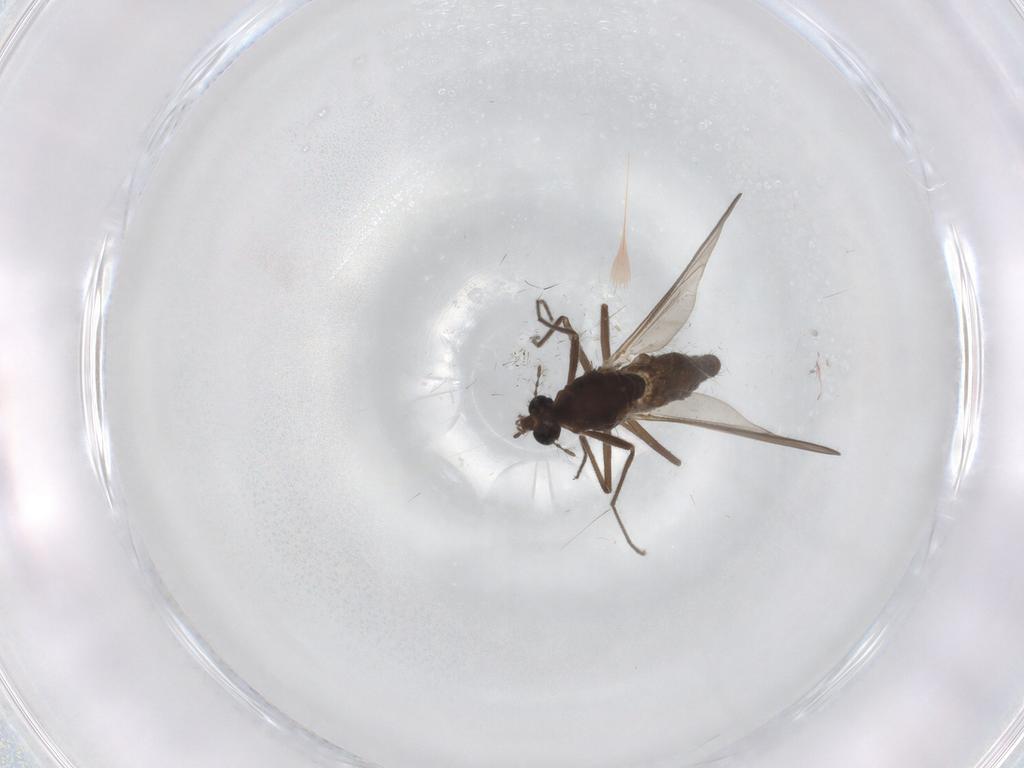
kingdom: Animalia
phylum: Arthropoda
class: Insecta
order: Diptera
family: Chironomidae
